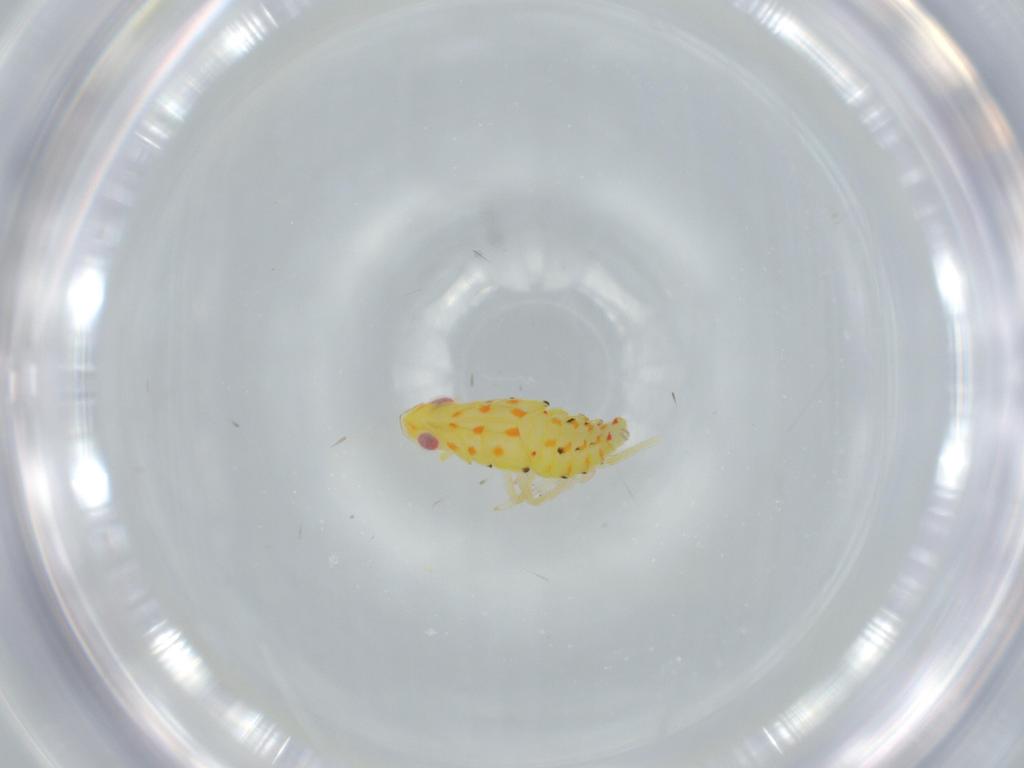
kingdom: Animalia
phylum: Arthropoda
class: Insecta
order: Hemiptera
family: Tropiduchidae
